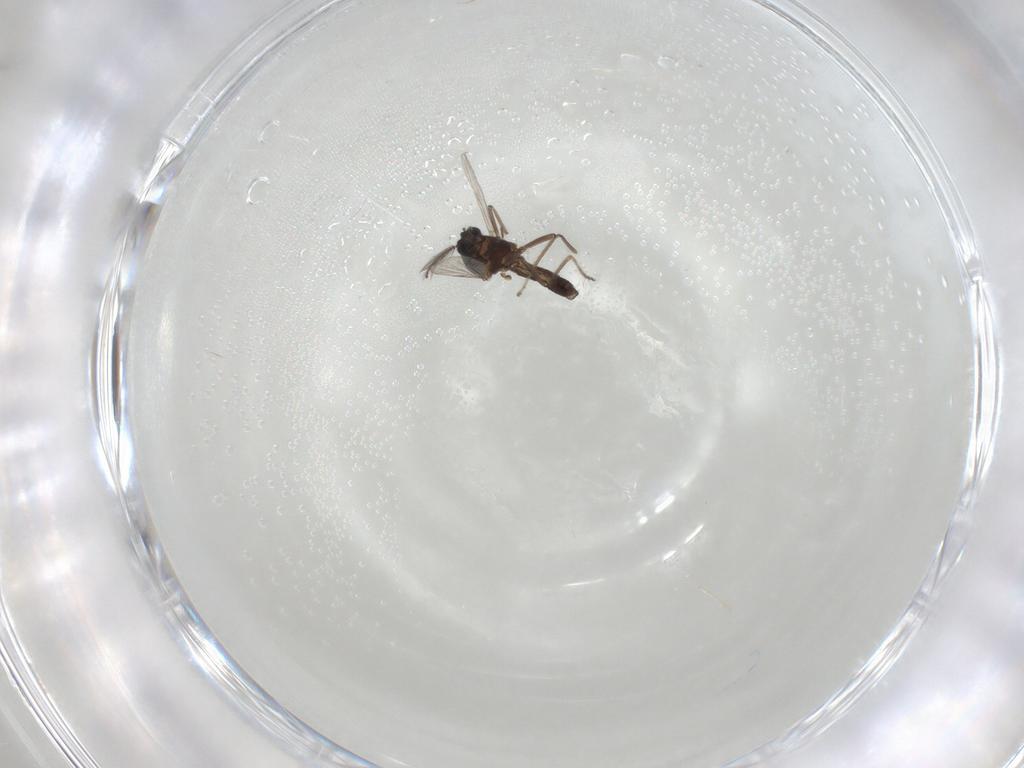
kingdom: Animalia
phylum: Arthropoda
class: Insecta
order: Diptera
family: Ceratopogonidae
